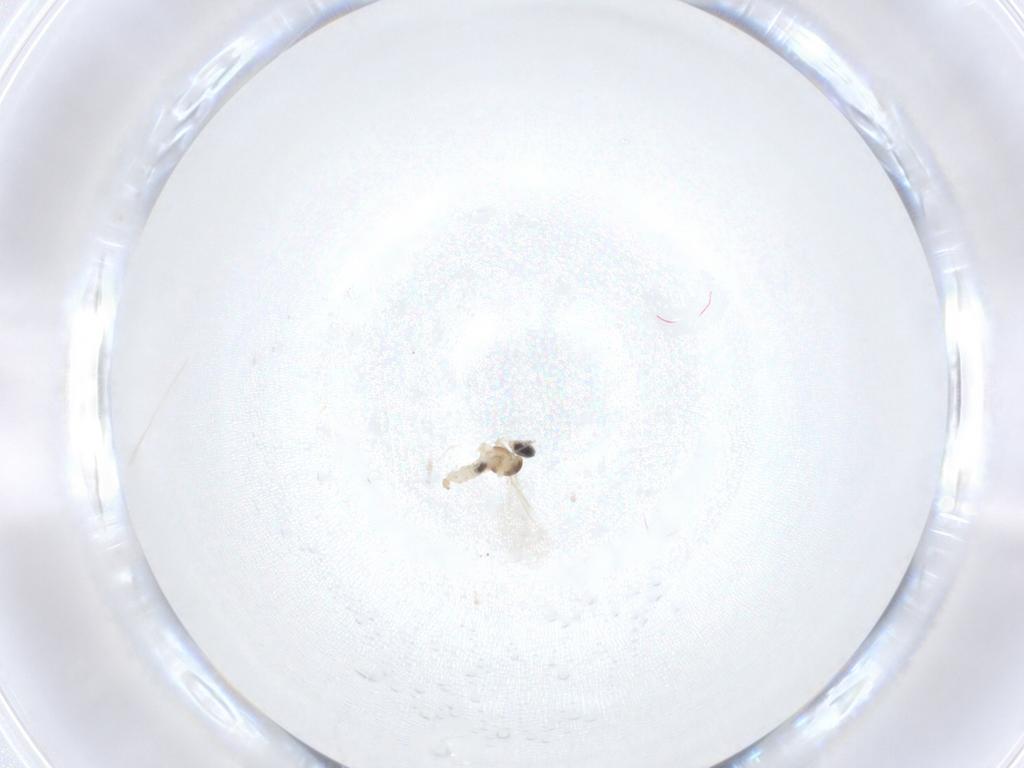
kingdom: Animalia
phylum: Arthropoda
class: Insecta
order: Diptera
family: Cecidomyiidae
